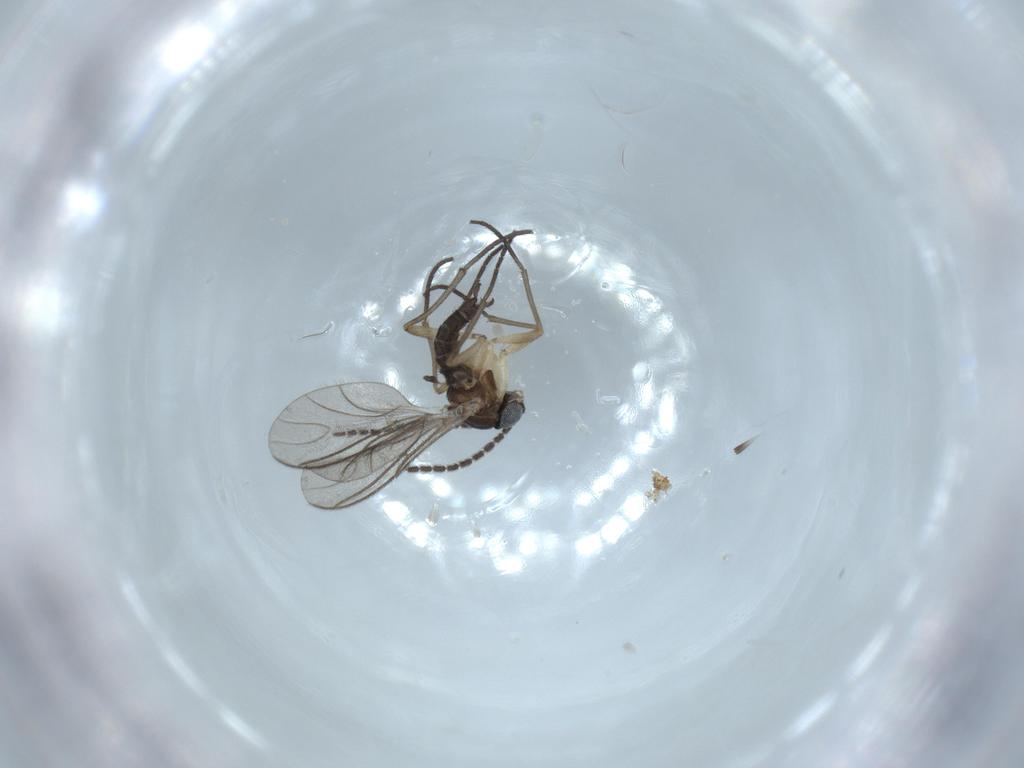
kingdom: Animalia
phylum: Arthropoda
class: Insecta
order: Diptera
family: Sciaridae
